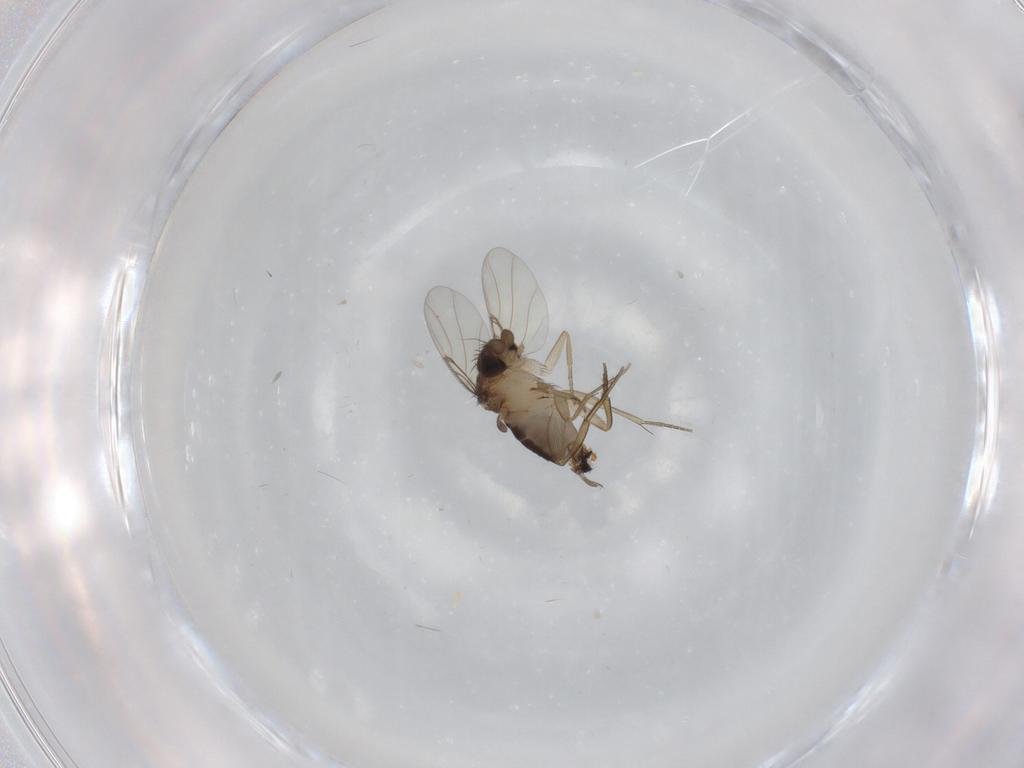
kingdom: Animalia
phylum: Arthropoda
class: Insecta
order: Diptera
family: Phoridae
